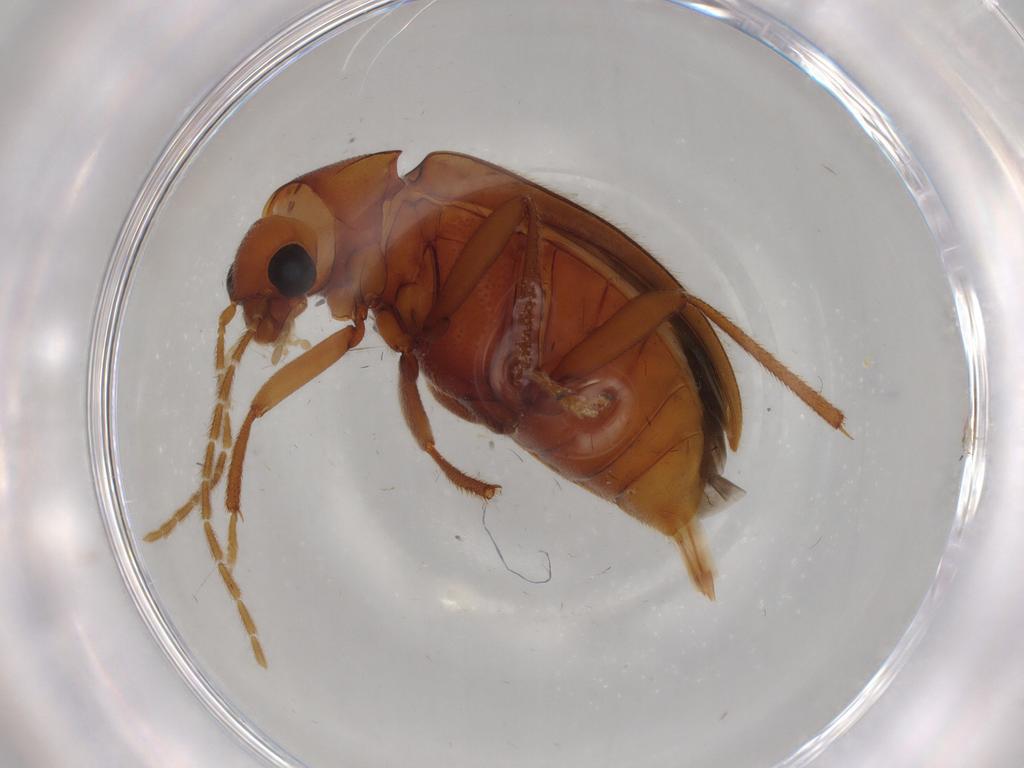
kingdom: Animalia
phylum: Arthropoda
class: Insecta
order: Coleoptera
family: Ptilodactylidae
